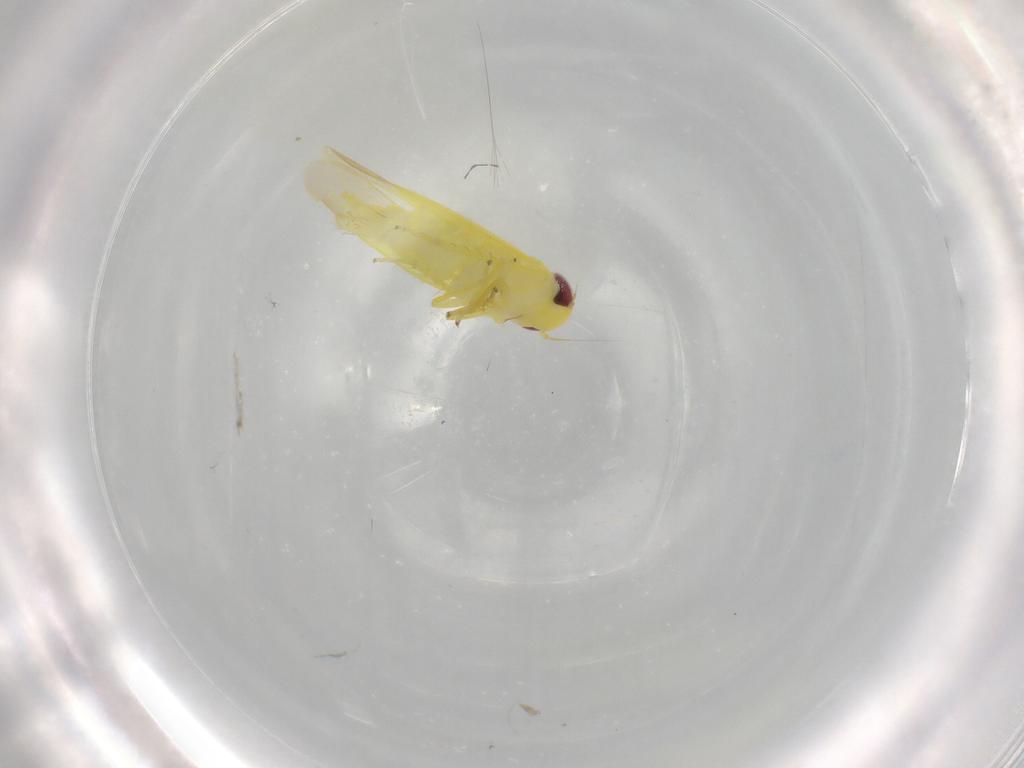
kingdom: Animalia
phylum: Arthropoda
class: Insecta
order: Hemiptera
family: Cicadellidae
